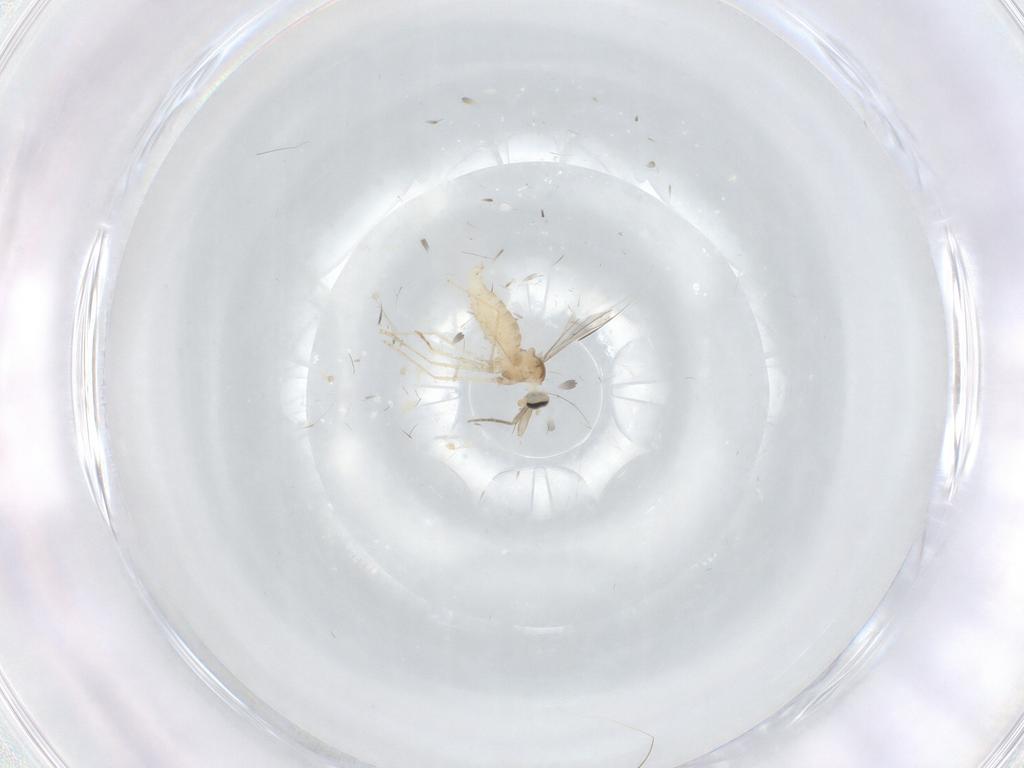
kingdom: Animalia
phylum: Arthropoda
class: Insecta
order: Diptera
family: Cecidomyiidae
